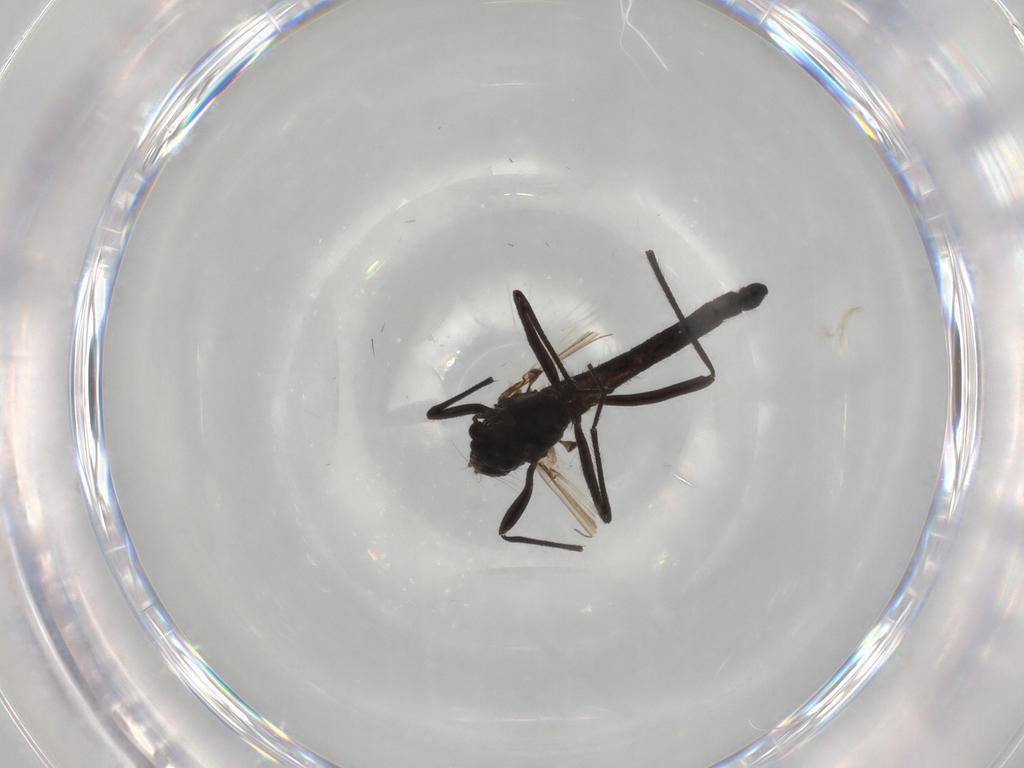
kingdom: Animalia
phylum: Arthropoda
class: Insecta
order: Diptera
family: Chironomidae
